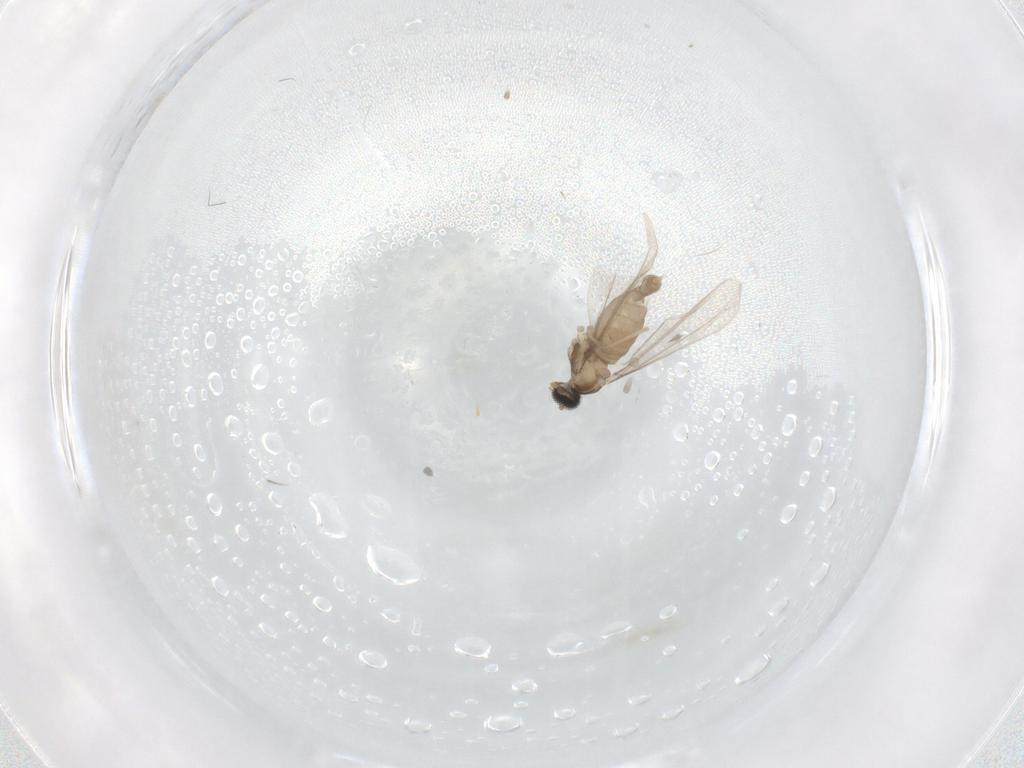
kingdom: Animalia
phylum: Arthropoda
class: Insecta
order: Diptera
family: Cecidomyiidae
